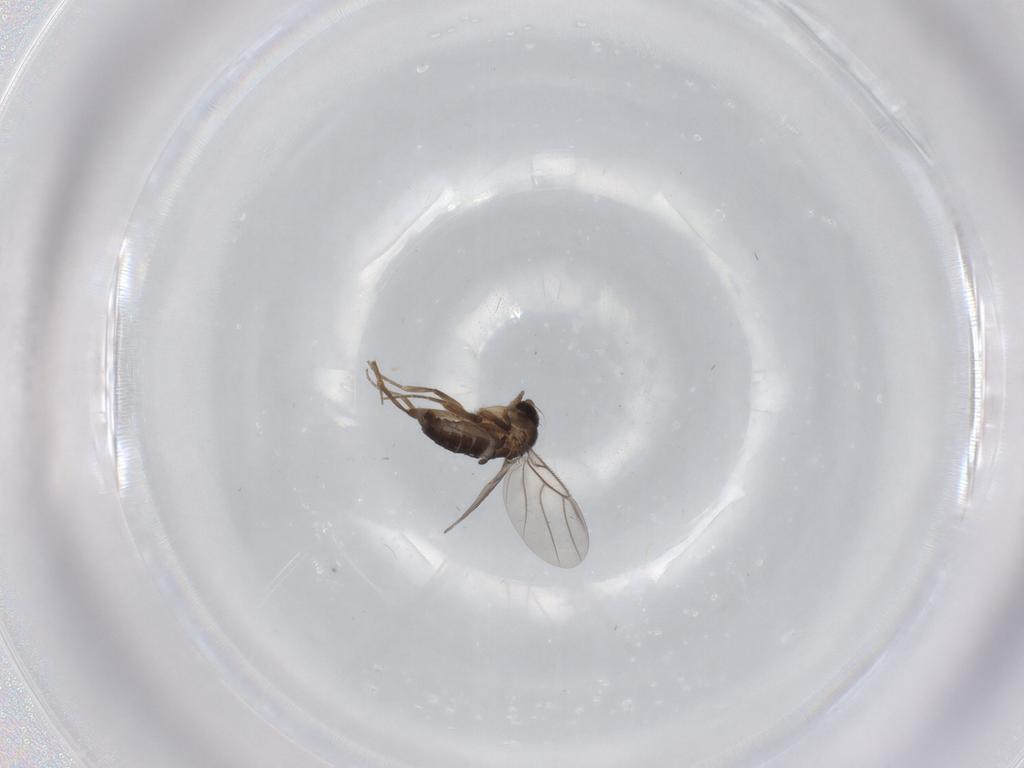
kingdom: Animalia
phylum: Arthropoda
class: Insecta
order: Diptera
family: Phoridae
